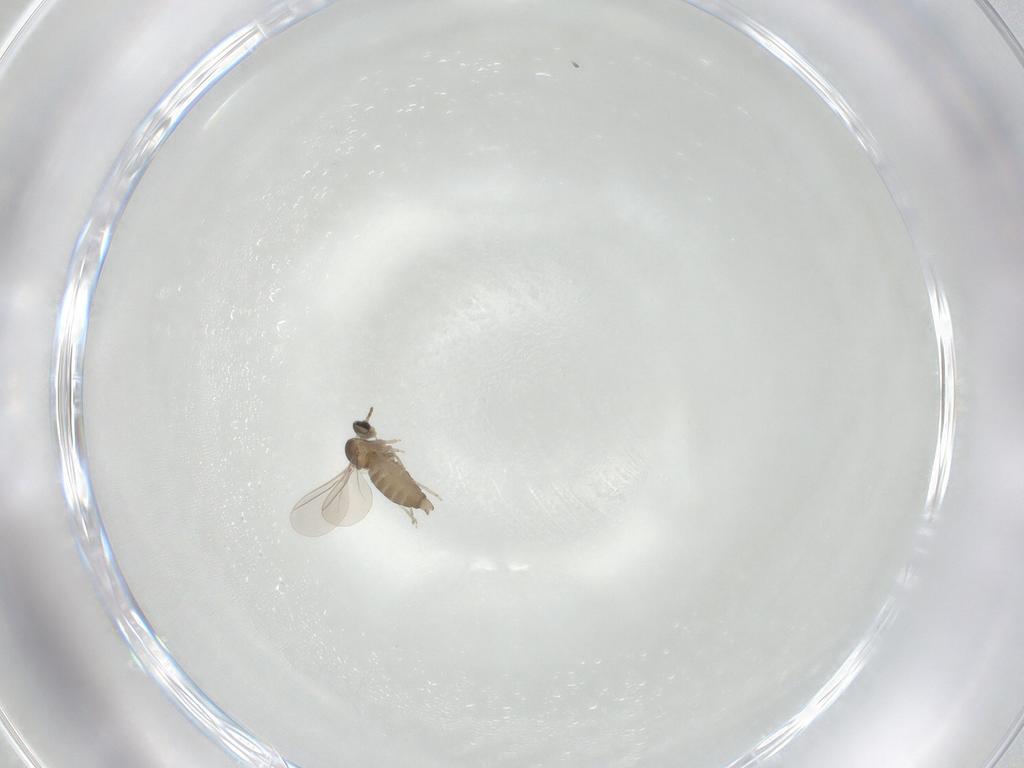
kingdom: Animalia
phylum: Arthropoda
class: Insecta
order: Diptera
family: Cecidomyiidae
